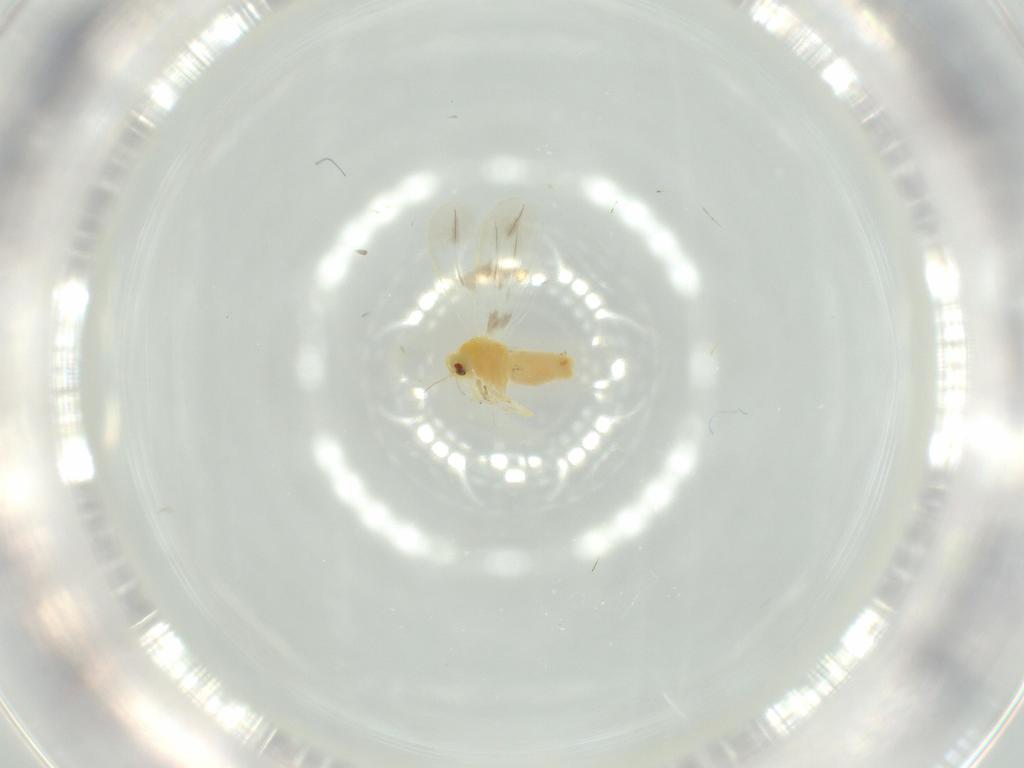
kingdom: Animalia
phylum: Arthropoda
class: Insecta
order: Hemiptera
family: Aleyrodidae
